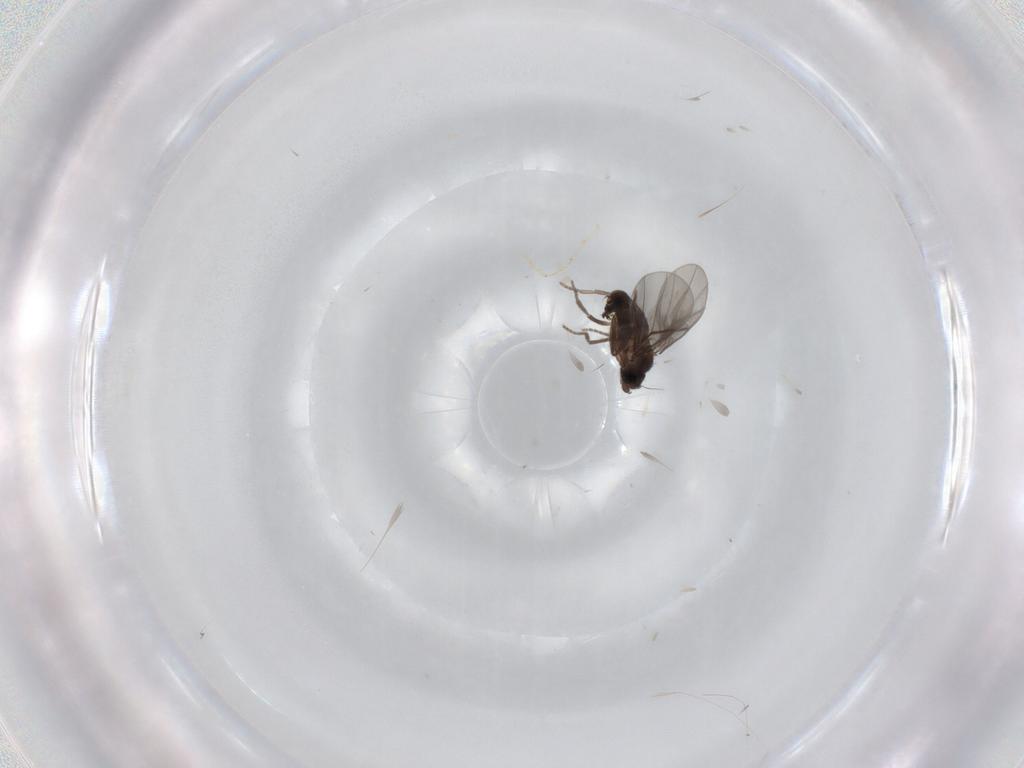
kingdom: Animalia
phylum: Arthropoda
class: Insecta
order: Diptera
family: Phoridae
